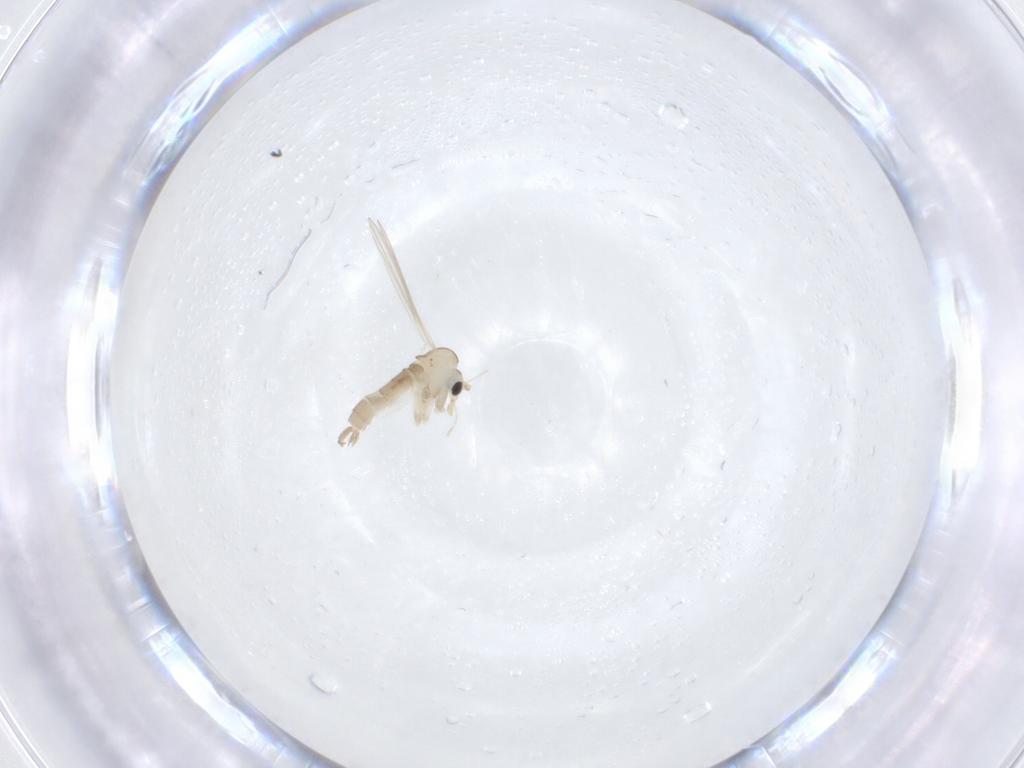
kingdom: Animalia
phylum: Arthropoda
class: Insecta
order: Diptera
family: Psychodidae
